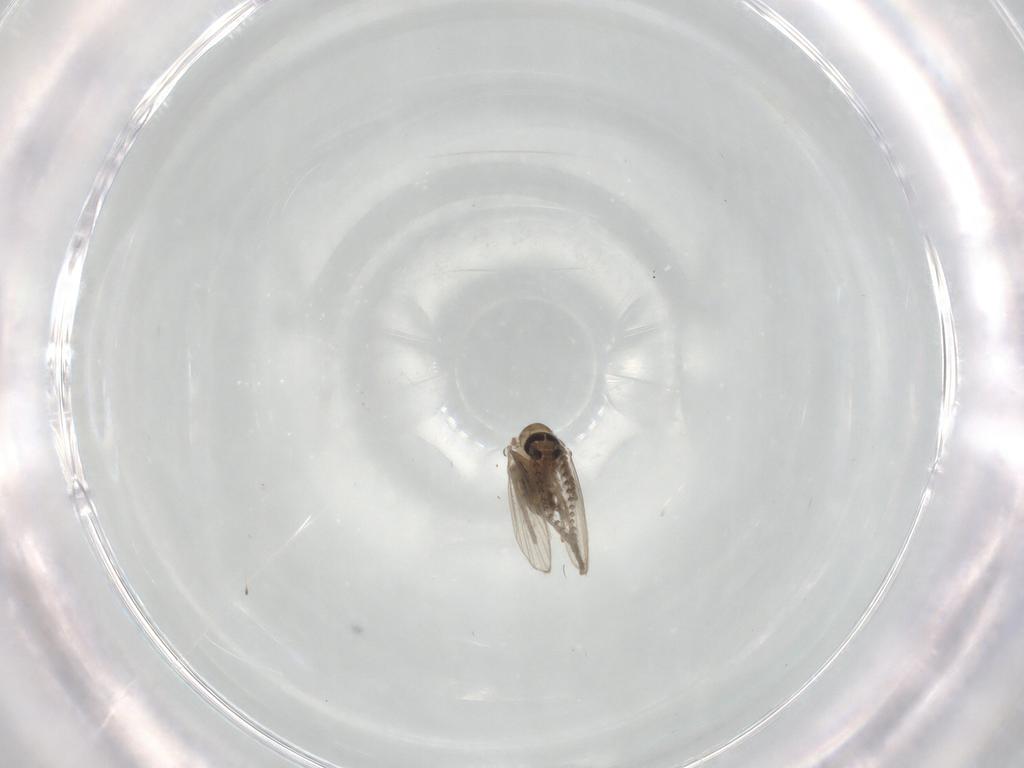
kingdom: Animalia
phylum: Arthropoda
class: Insecta
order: Diptera
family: Psychodidae
